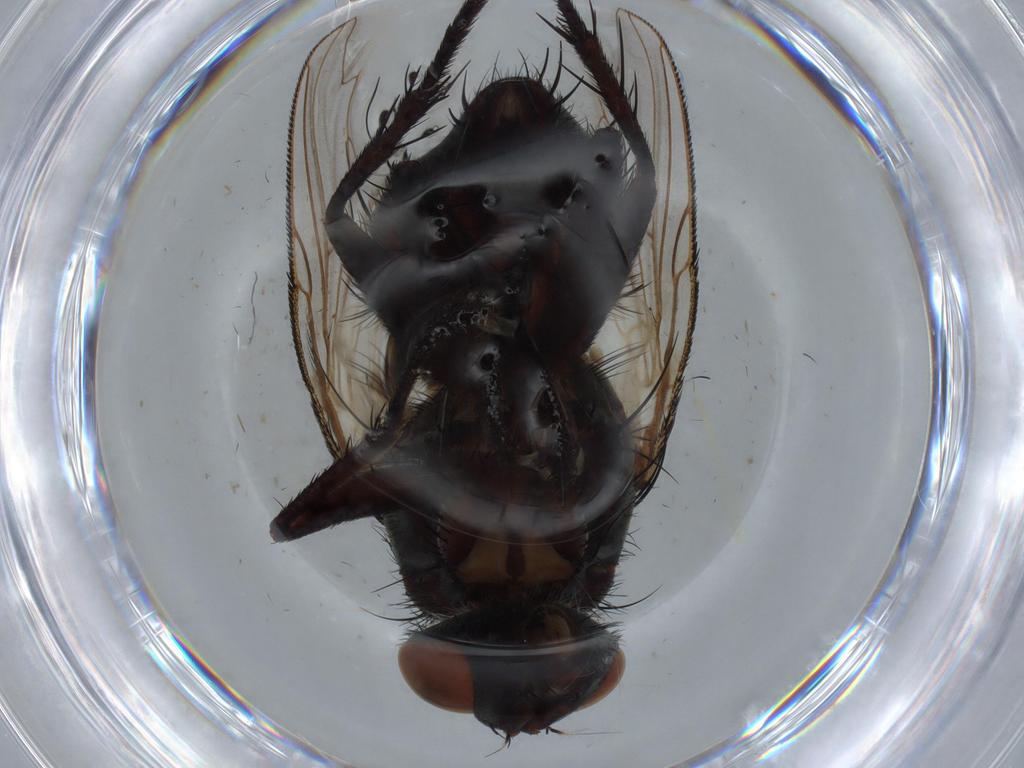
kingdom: Animalia
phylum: Arthropoda
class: Insecta
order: Diptera
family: Sarcophagidae
